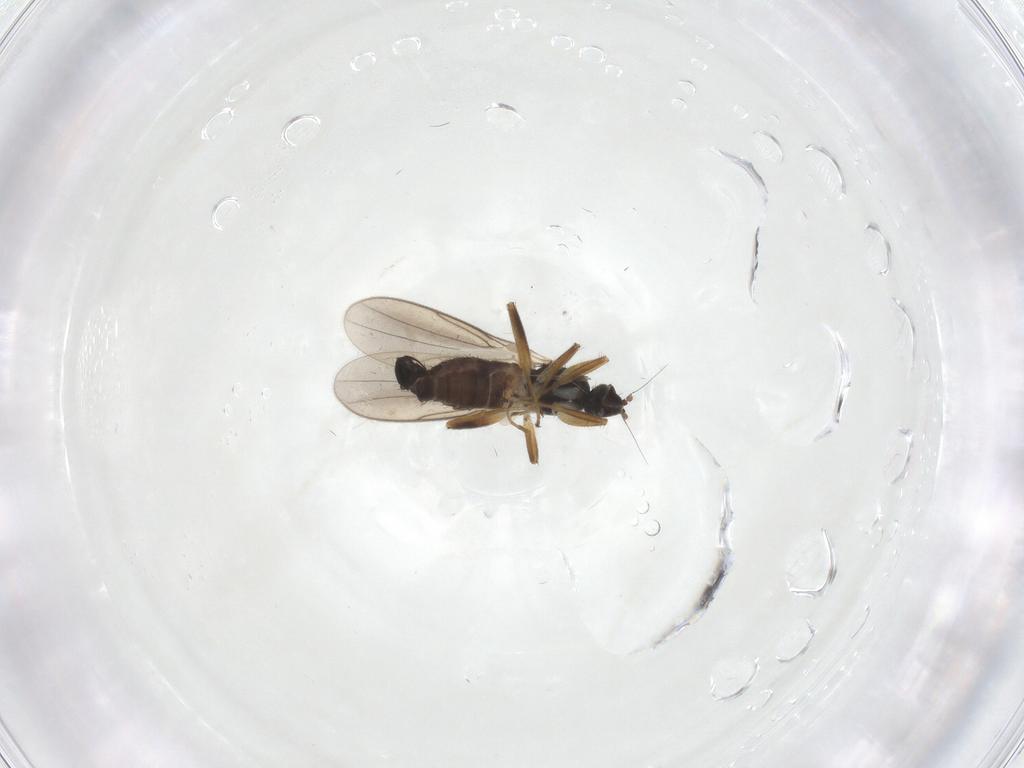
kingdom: Animalia
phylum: Arthropoda
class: Insecta
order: Diptera
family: Hybotidae
